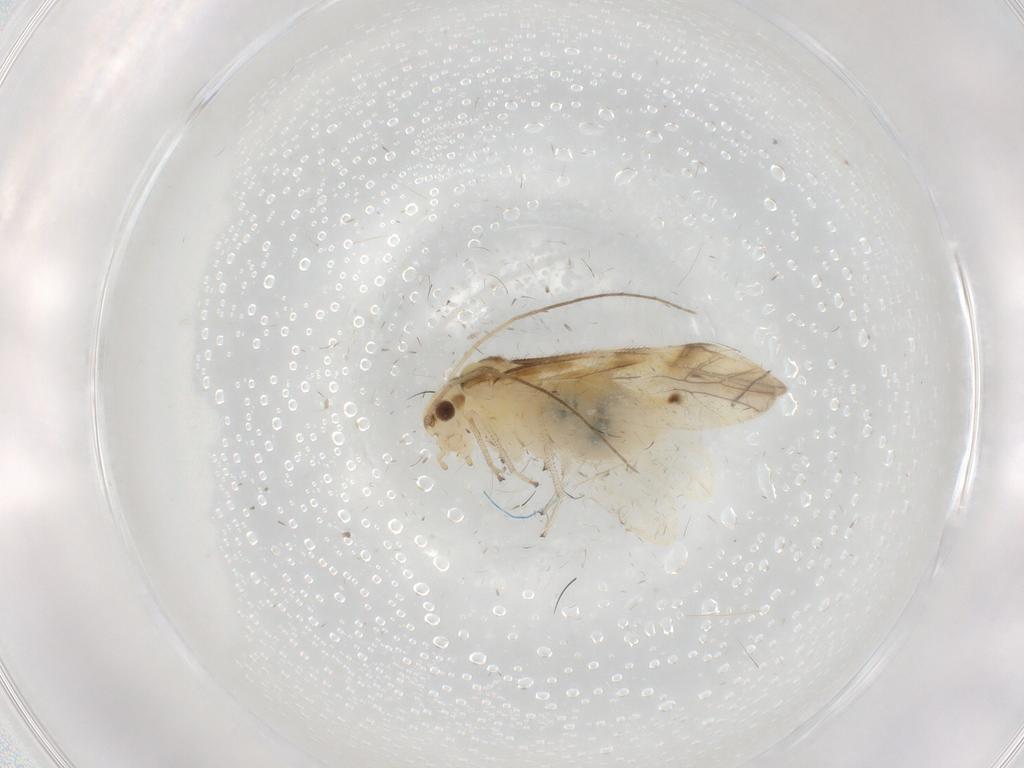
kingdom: Animalia
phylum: Arthropoda
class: Insecta
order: Psocodea
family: Caeciliusidae
